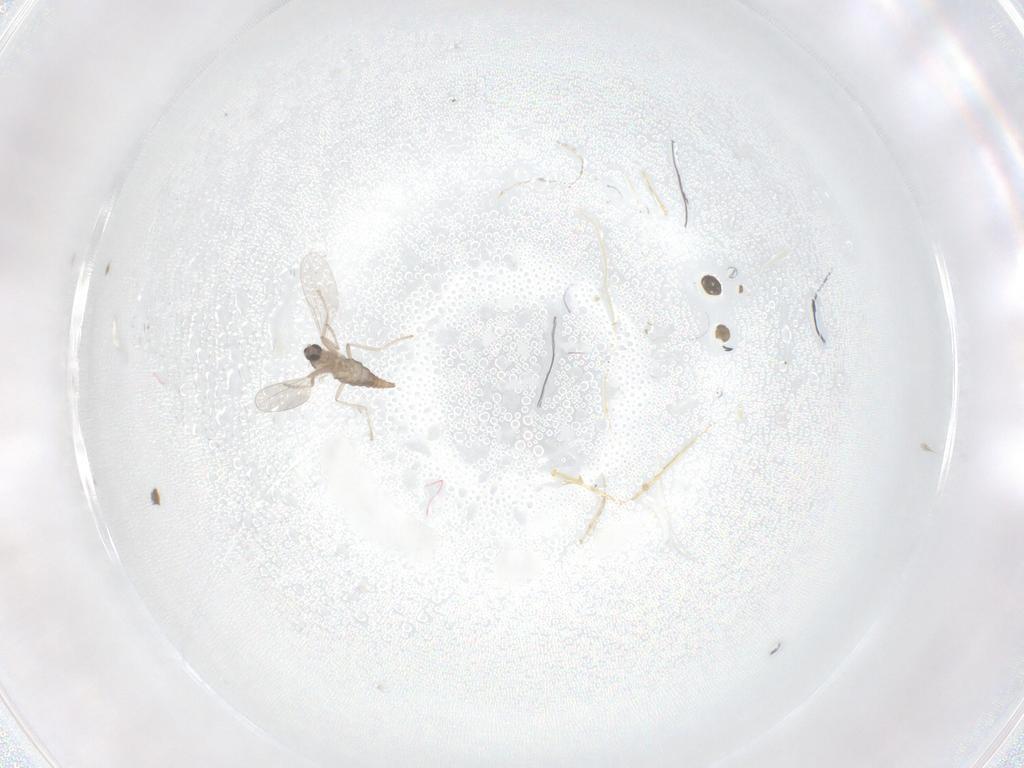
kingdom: Animalia
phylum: Arthropoda
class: Insecta
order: Diptera
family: Cecidomyiidae
